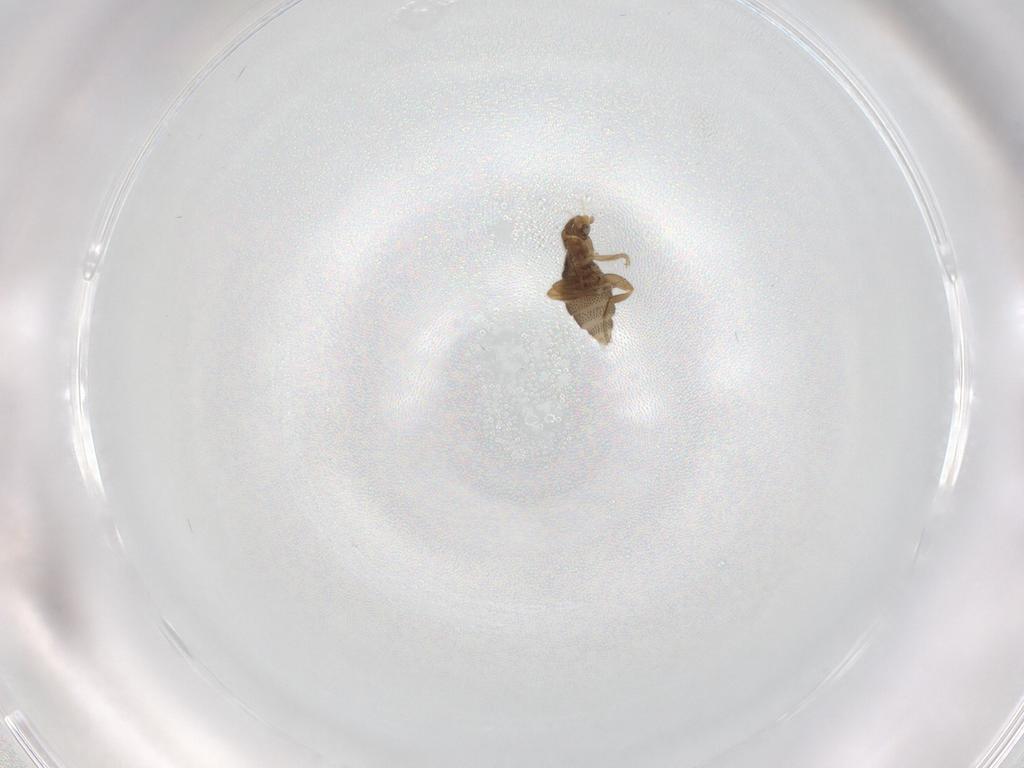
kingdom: Animalia
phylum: Arthropoda
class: Insecta
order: Diptera
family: Phoridae
